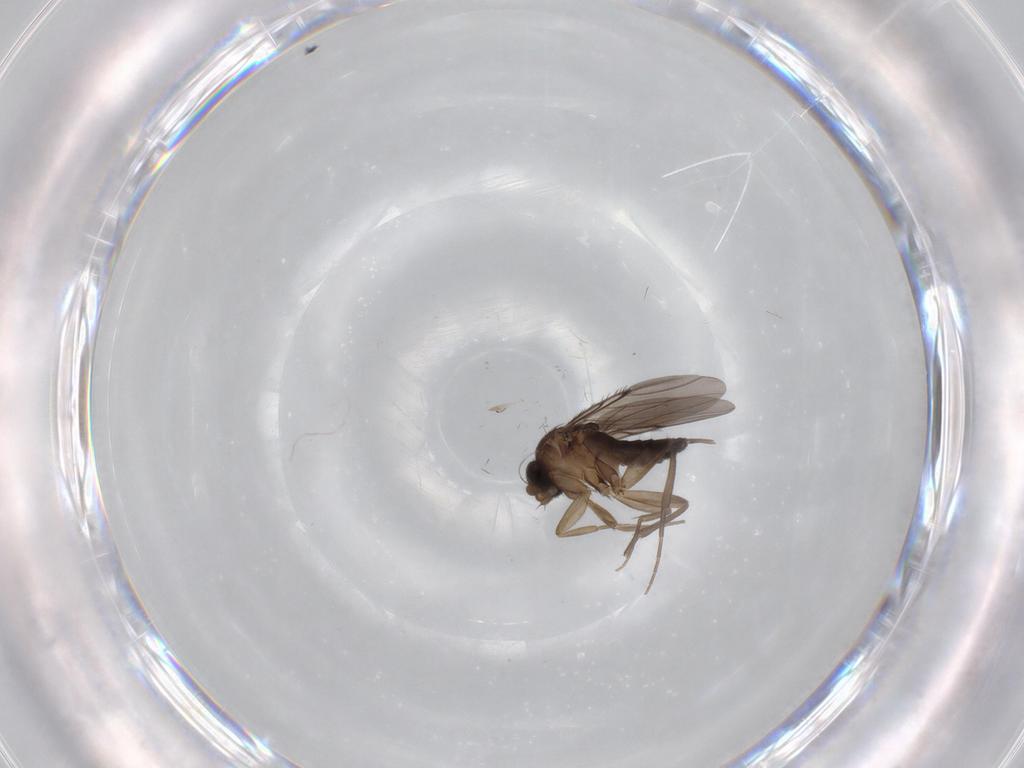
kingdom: Animalia
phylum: Arthropoda
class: Insecta
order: Diptera
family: Phoridae
